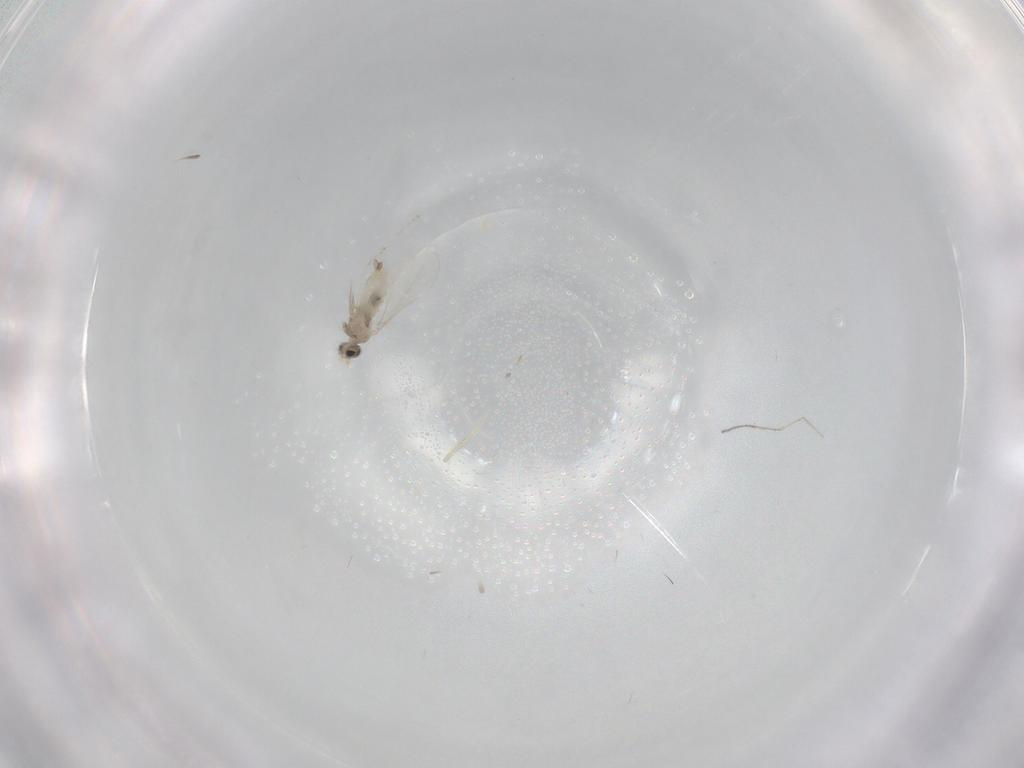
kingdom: Animalia
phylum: Arthropoda
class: Insecta
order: Diptera
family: Cecidomyiidae
